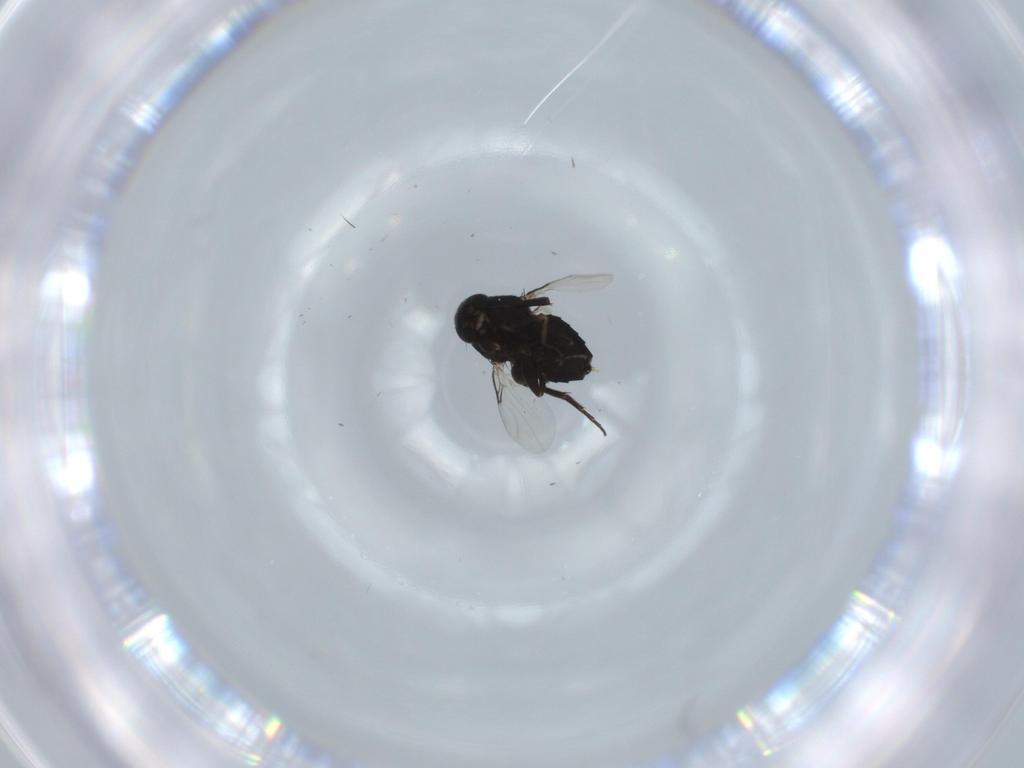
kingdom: Animalia
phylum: Arthropoda
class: Insecta
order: Diptera
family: Phoridae
